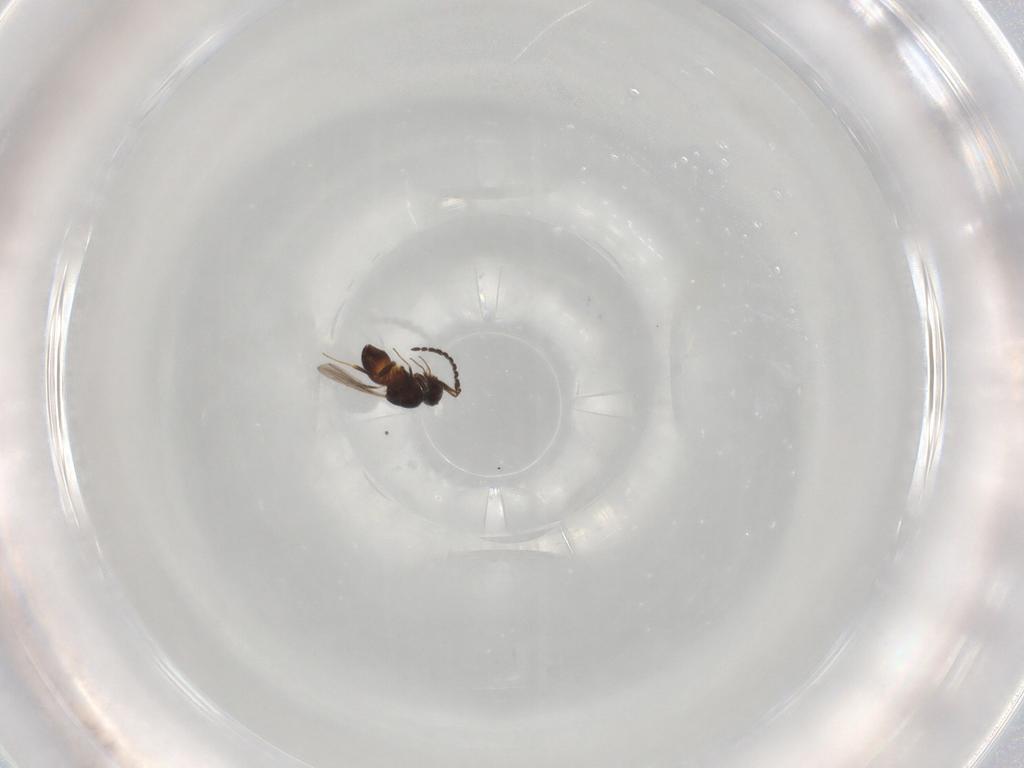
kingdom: Animalia
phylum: Arthropoda
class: Insecta
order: Hymenoptera
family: Ceraphronidae
